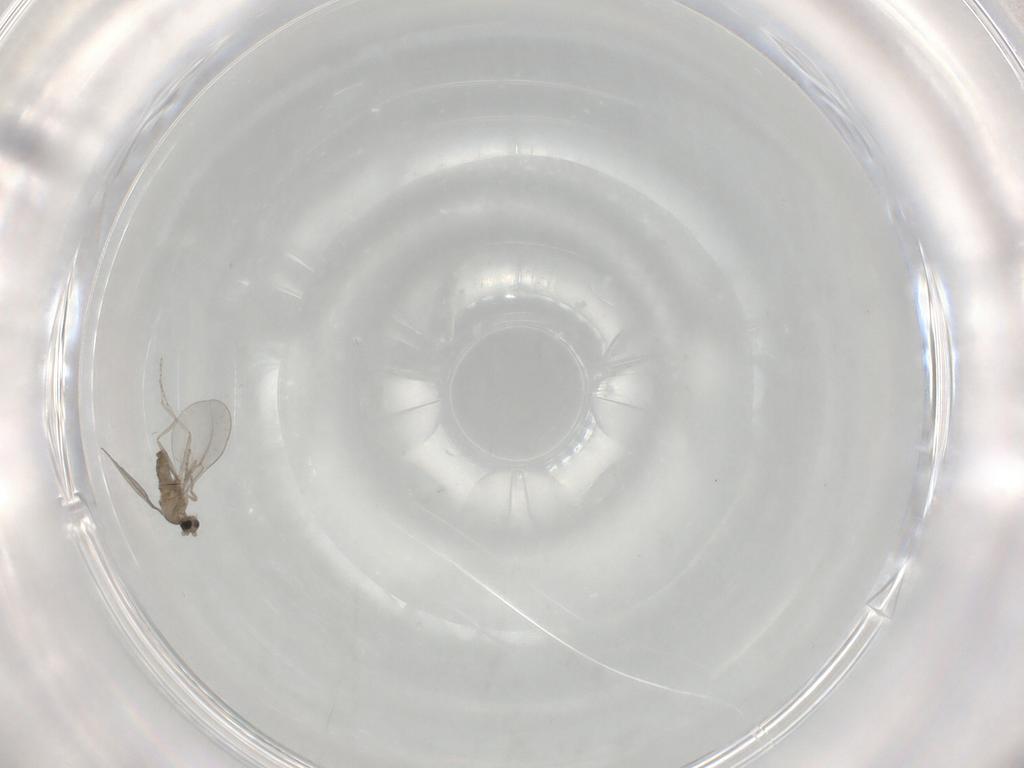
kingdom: Animalia
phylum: Arthropoda
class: Insecta
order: Diptera
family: Cecidomyiidae
